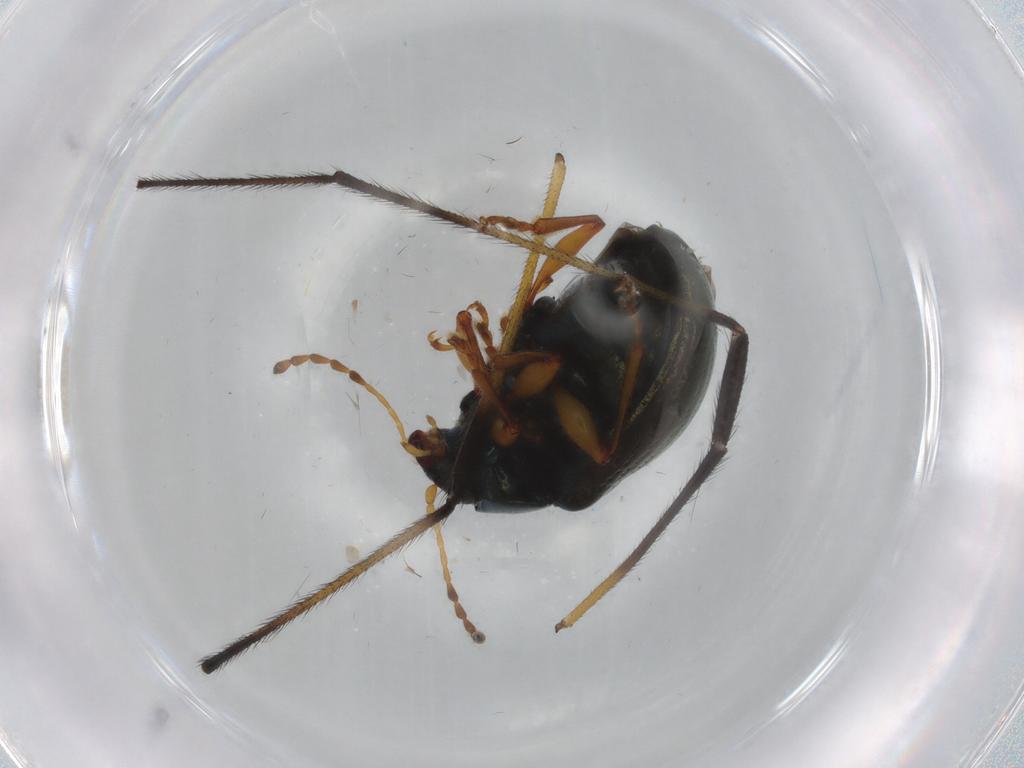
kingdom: Animalia
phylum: Arthropoda
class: Insecta
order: Coleoptera
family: Chrysomelidae
